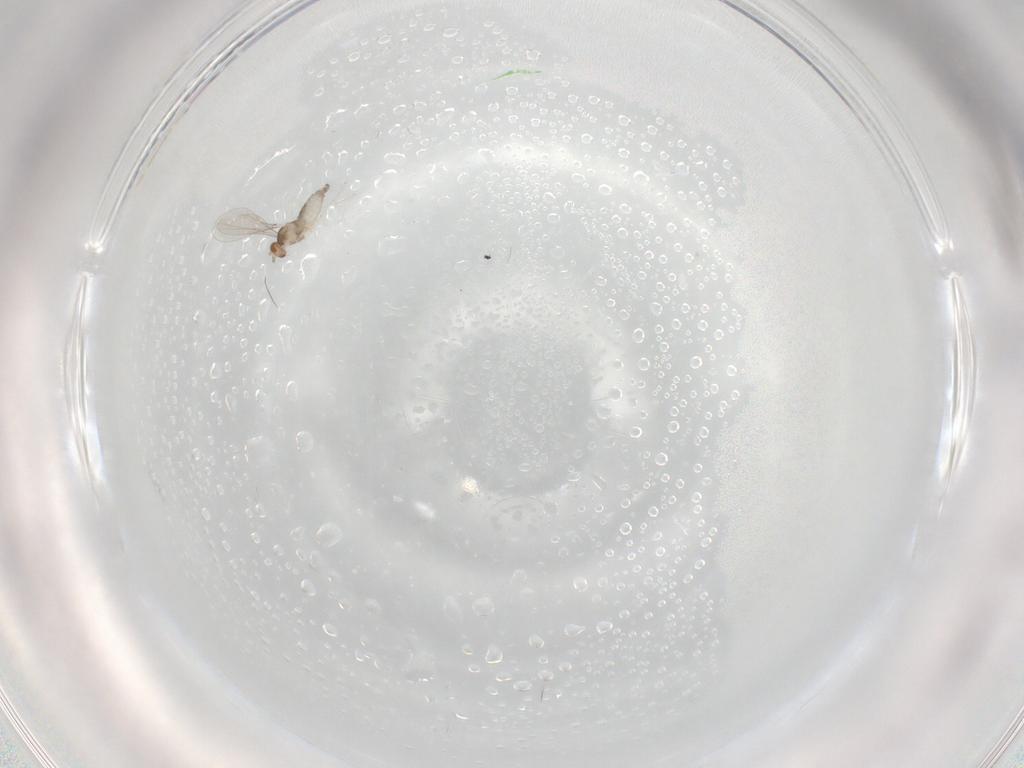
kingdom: Animalia
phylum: Arthropoda
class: Insecta
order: Diptera
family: Cecidomyiidae
